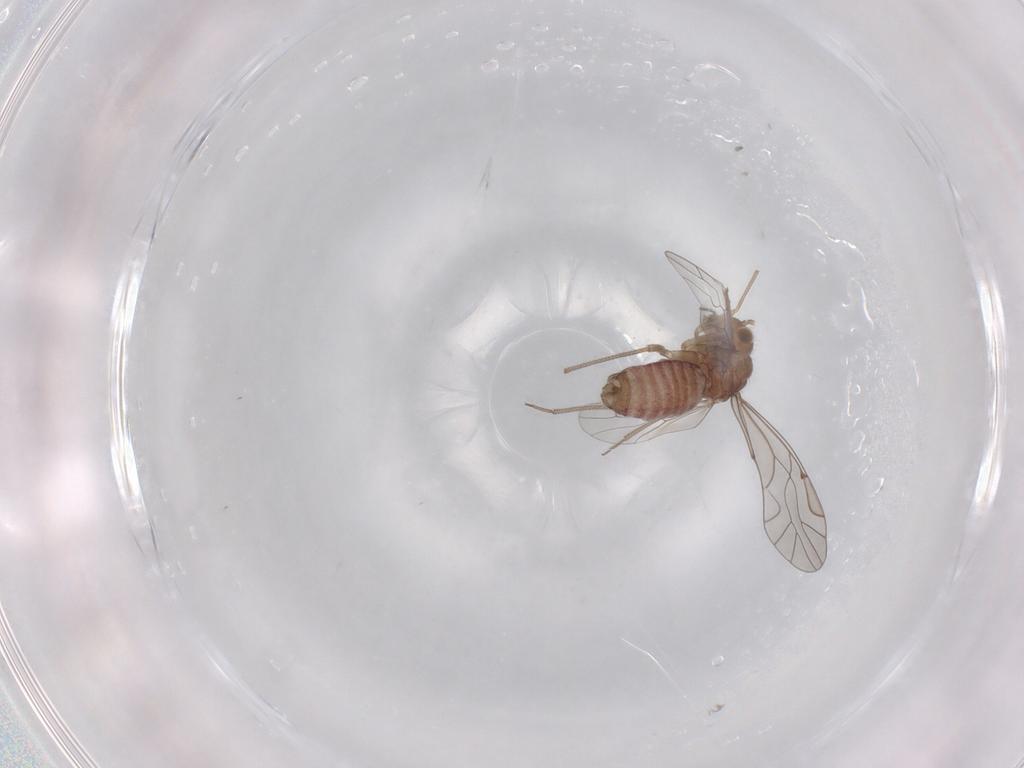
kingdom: Animalia
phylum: Arthropoda
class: Insecta
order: Psocodea
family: Lachesillidae
